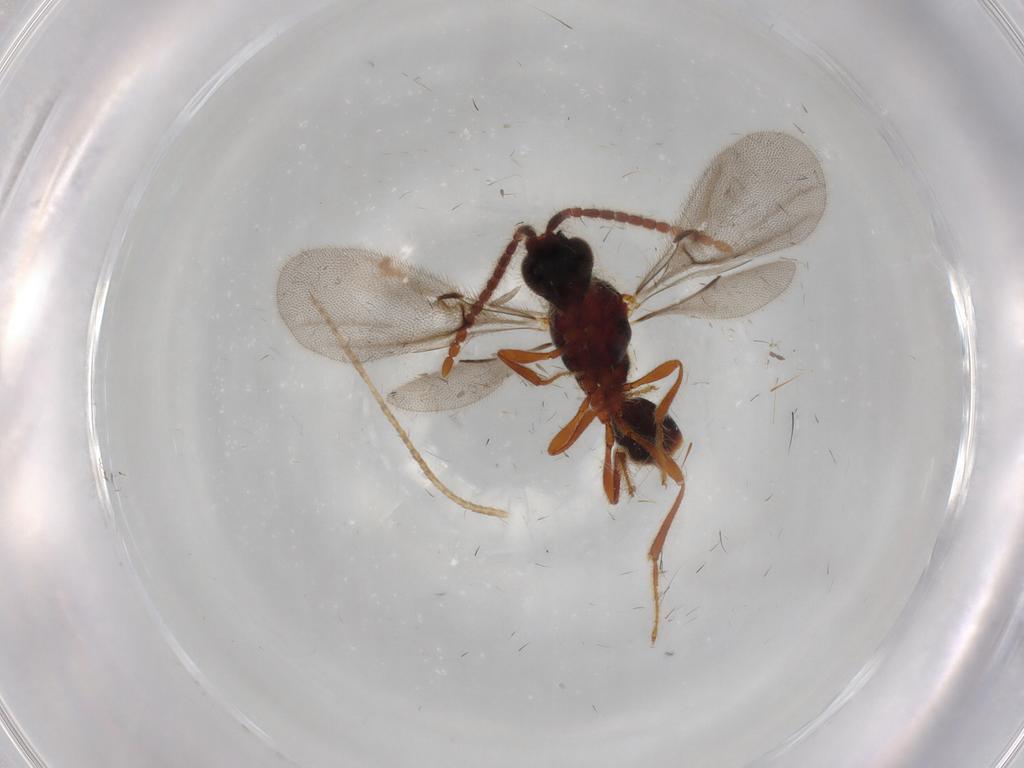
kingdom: Animalia
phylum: Arthropoda
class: Insecta
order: Hymenoptera
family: Diapriidae
